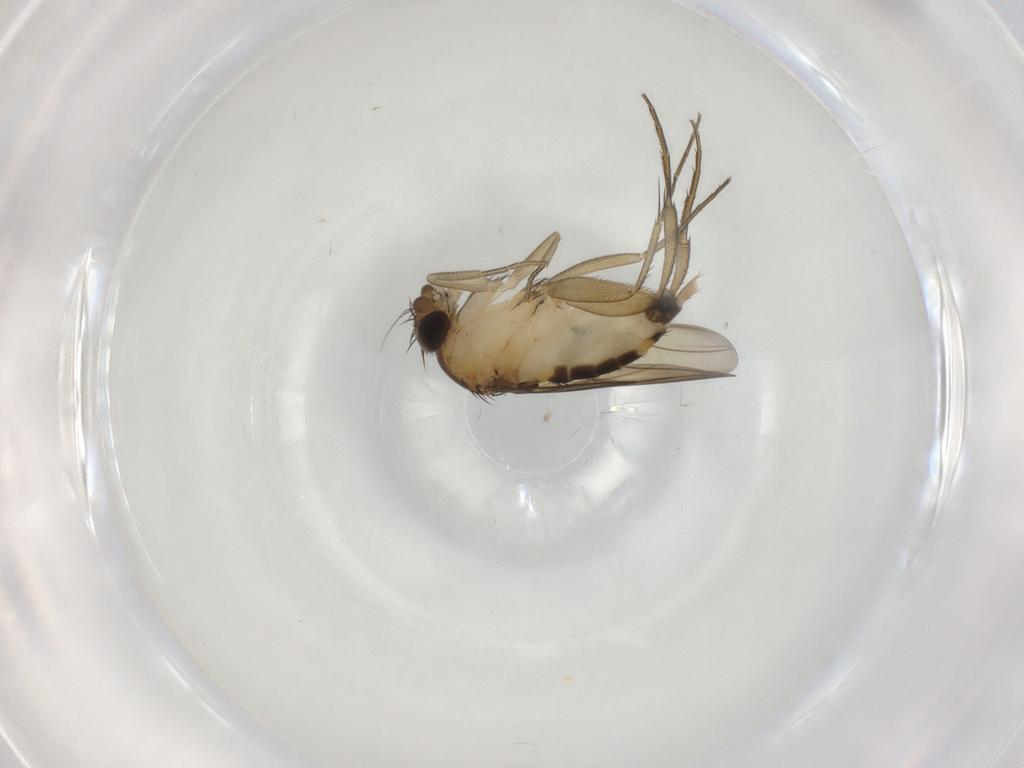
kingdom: Animalia
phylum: Arthropoda
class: Insecta
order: Diptera
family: Phoridae
